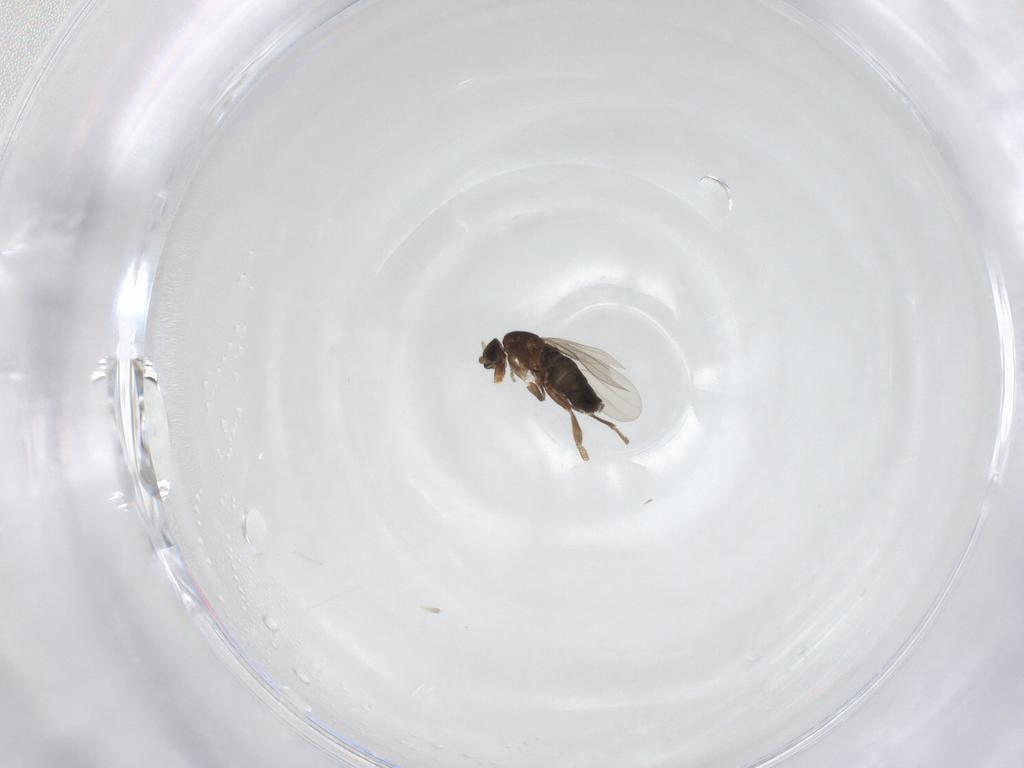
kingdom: Animalia
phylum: Arthropoda
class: Insecta
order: Diptera
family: Phoridae
